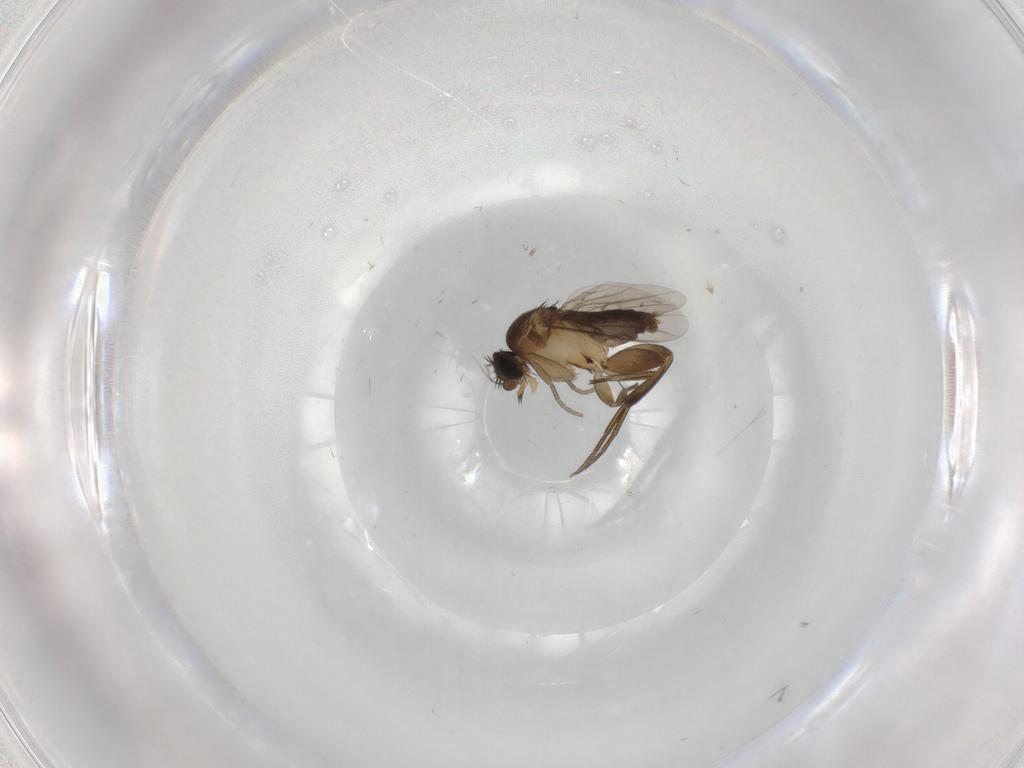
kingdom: Animalia
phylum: Arthropoda
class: Insecta
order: Diptera
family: Phoridae
